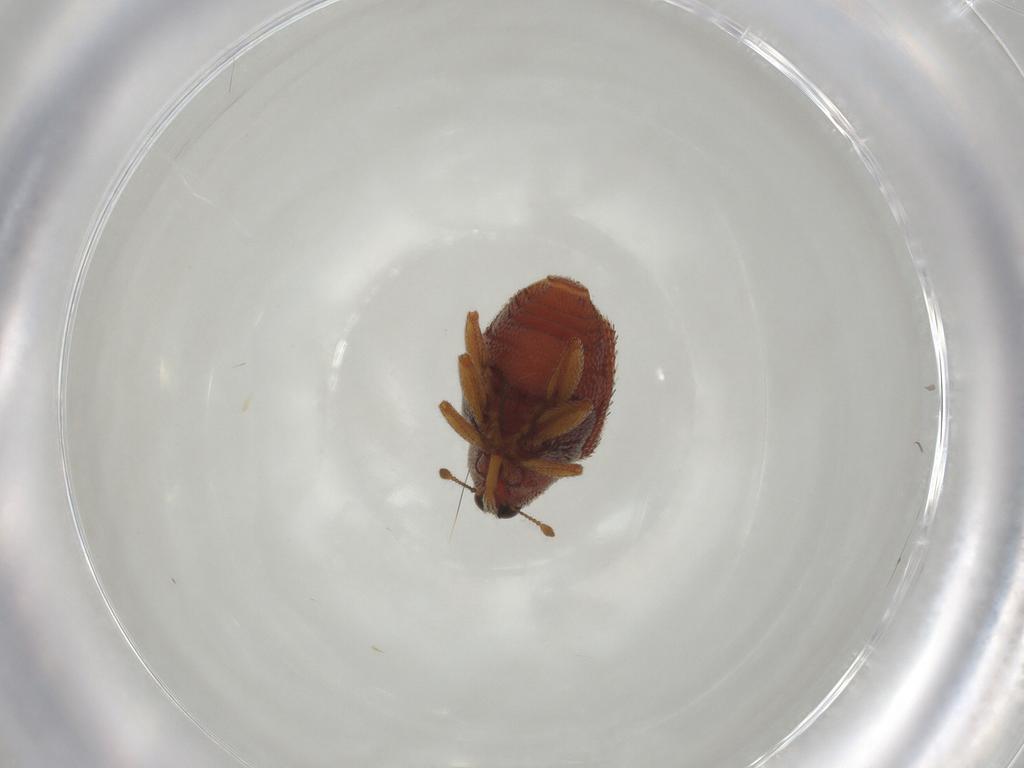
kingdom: Animalia
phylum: Arthropoda
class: Insecta
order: Coleoptera
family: Curculionidae
